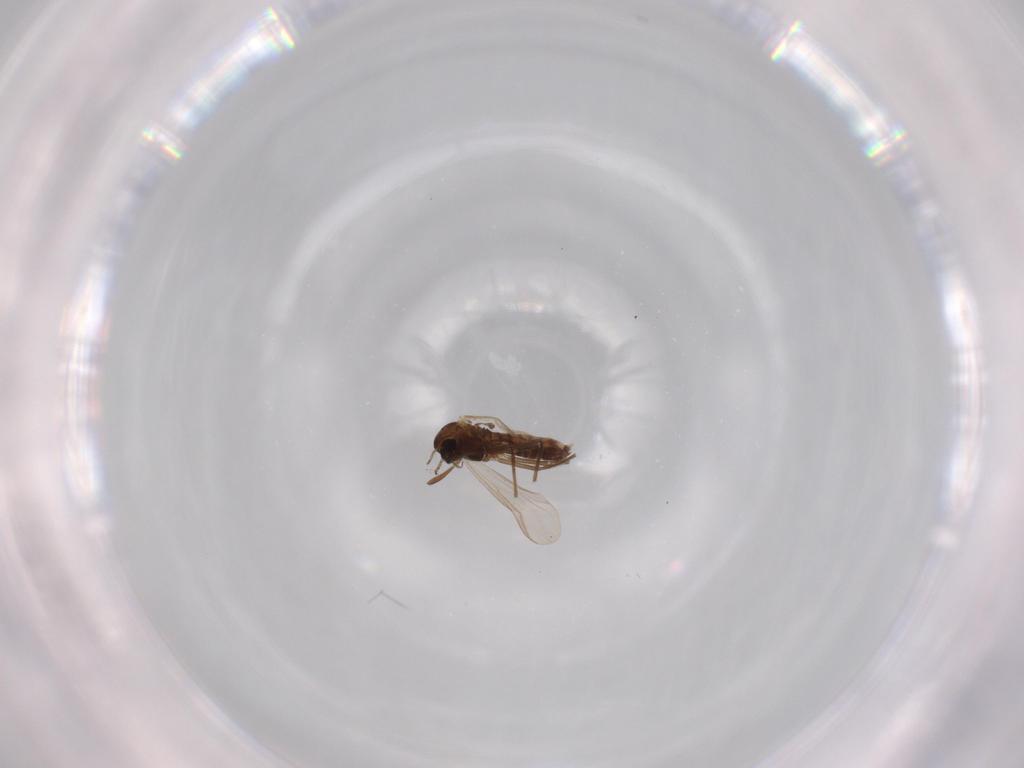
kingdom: Animalia
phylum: Arthropoda
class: Insecta
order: Diptera
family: Chironomidae
